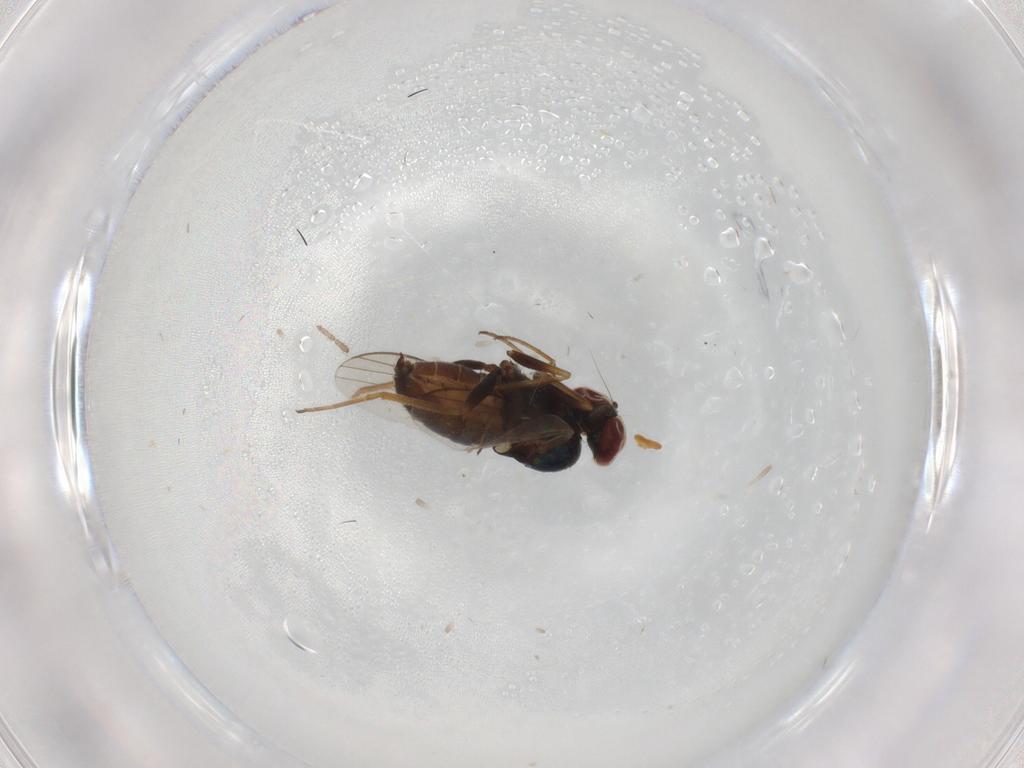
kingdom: Animalia
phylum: Arthropoda
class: Insecta
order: Diptera
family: Dolichopodidae
